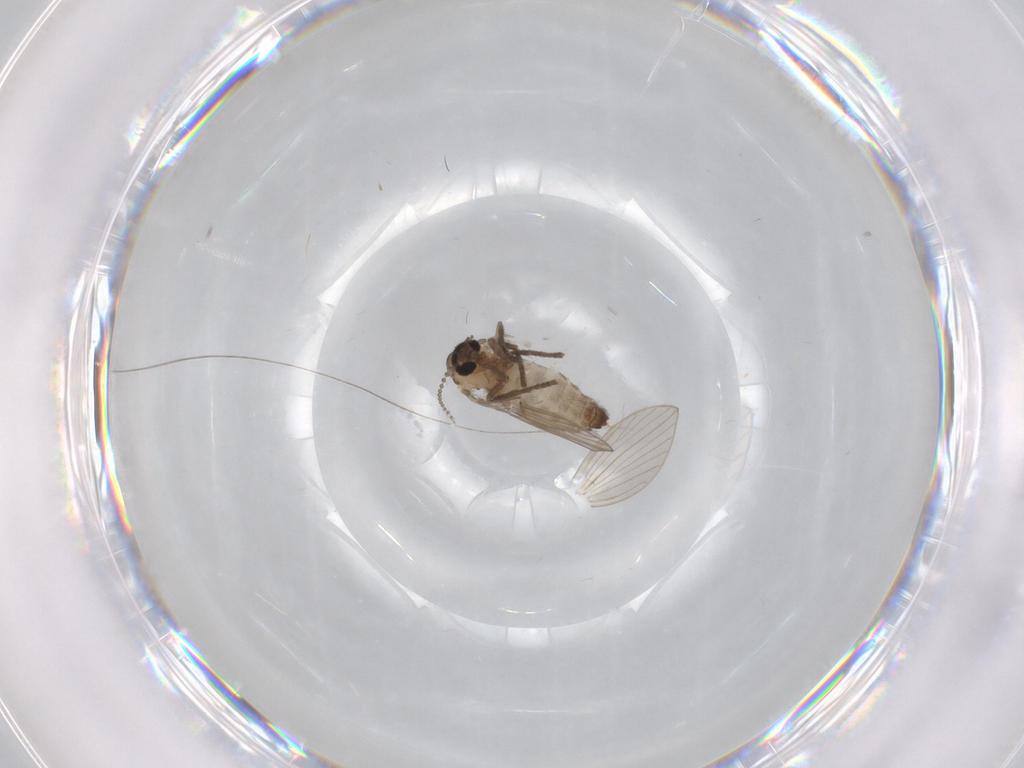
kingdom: Animalia
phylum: Arthropoda
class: Insecta
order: Diptera
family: Psychodidae
